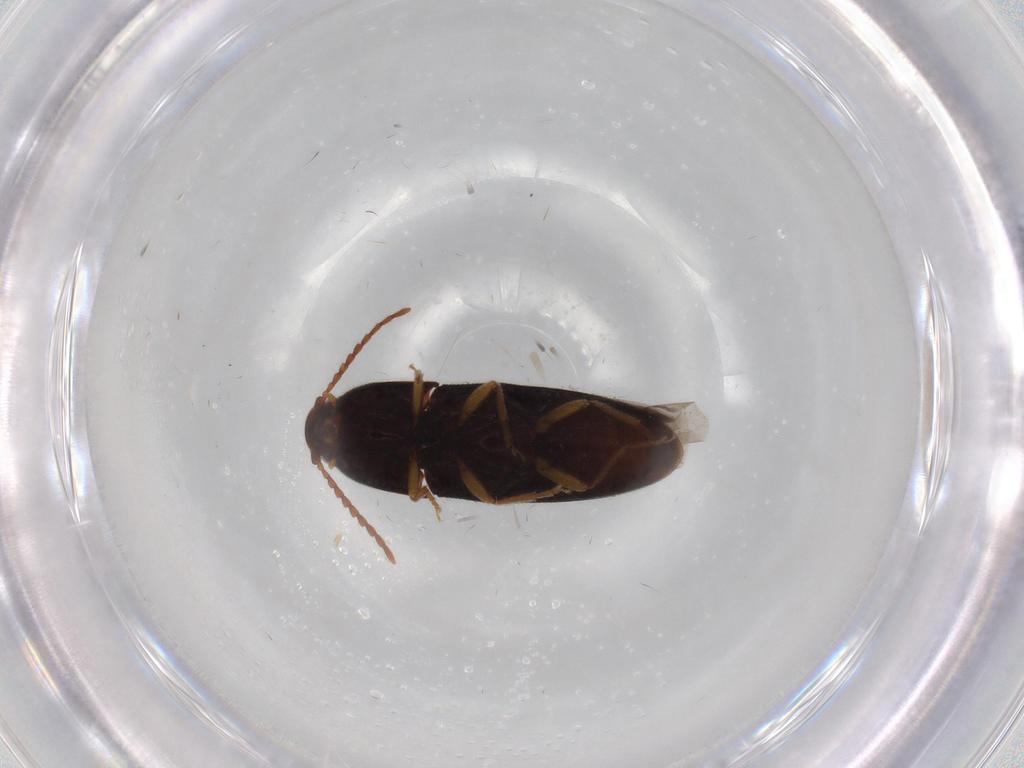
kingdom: Animalia
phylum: Arthropoda
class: Insecta
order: Coleoptera
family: Elateridae
